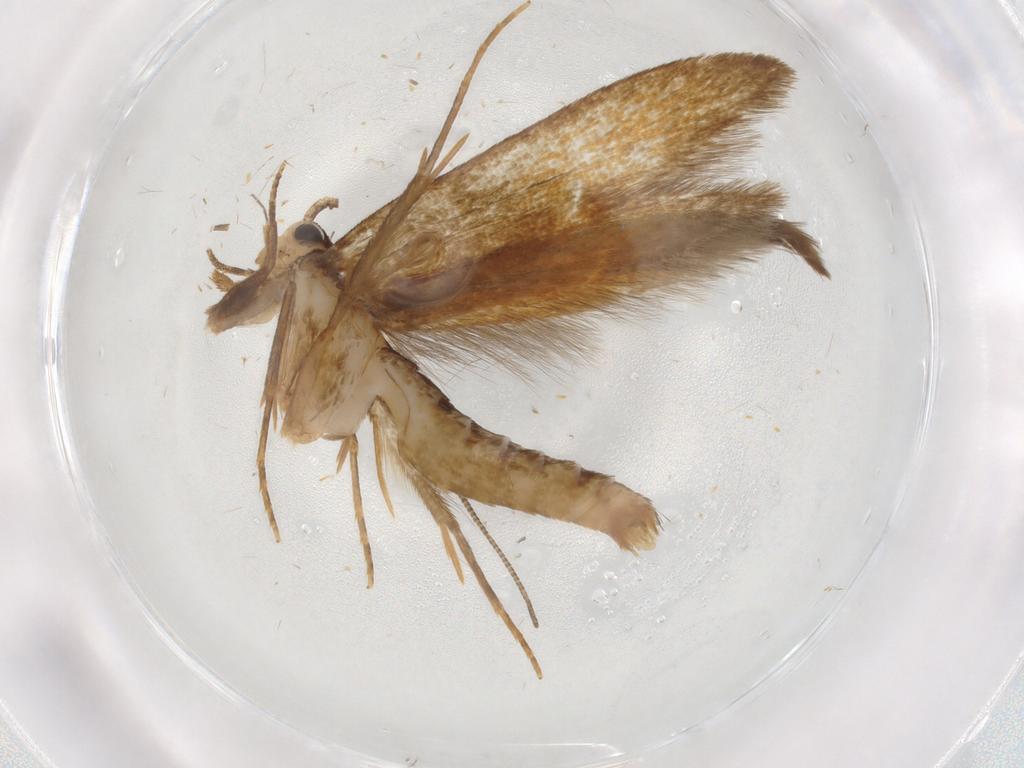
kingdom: Animalia
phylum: Arthropoda
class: Insecta
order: Lepidoptera
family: Tineidae
